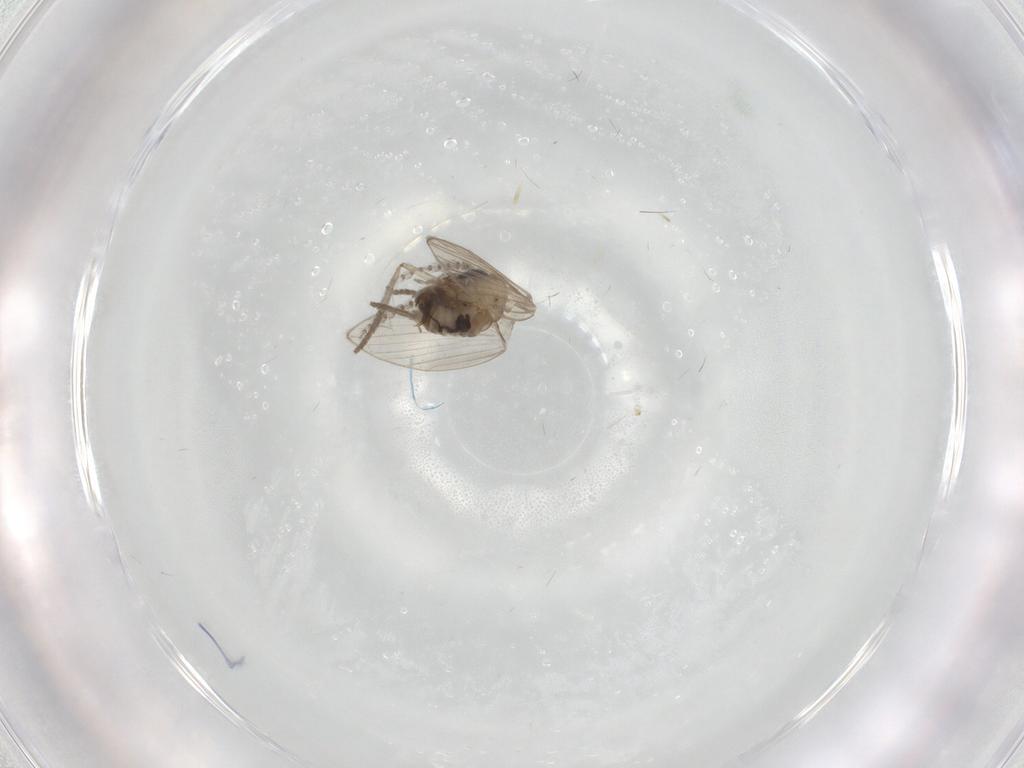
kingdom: Animalia
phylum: Arthropoda
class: Insecta
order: Diptera
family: Psychodidae
